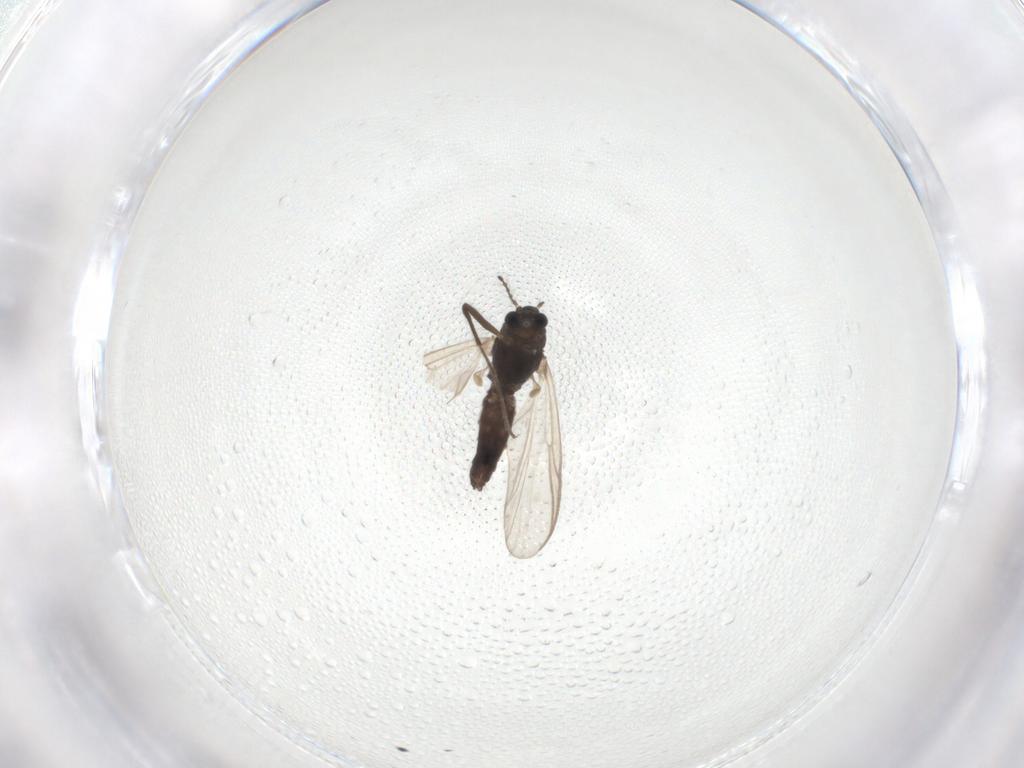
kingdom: Animalia
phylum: Arthropoda
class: Insecta
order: Diptera
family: Chironomidae
